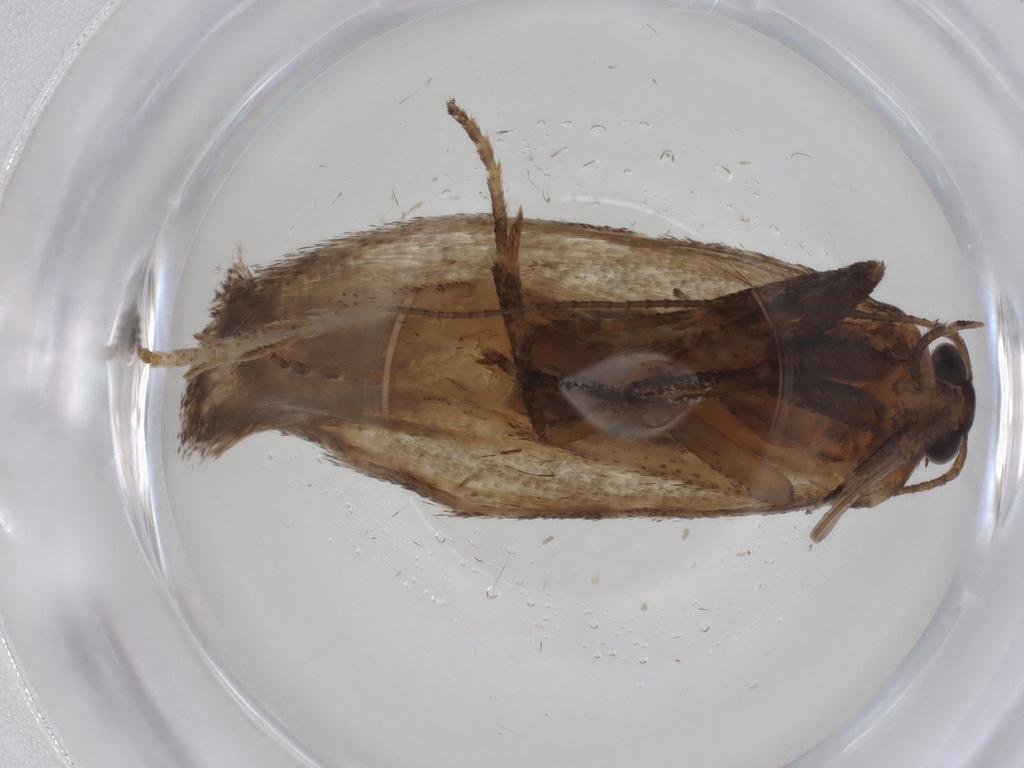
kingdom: Animalia
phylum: Arthropoda
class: Insecta
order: Lepidoptera
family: Cosmopterigidae
